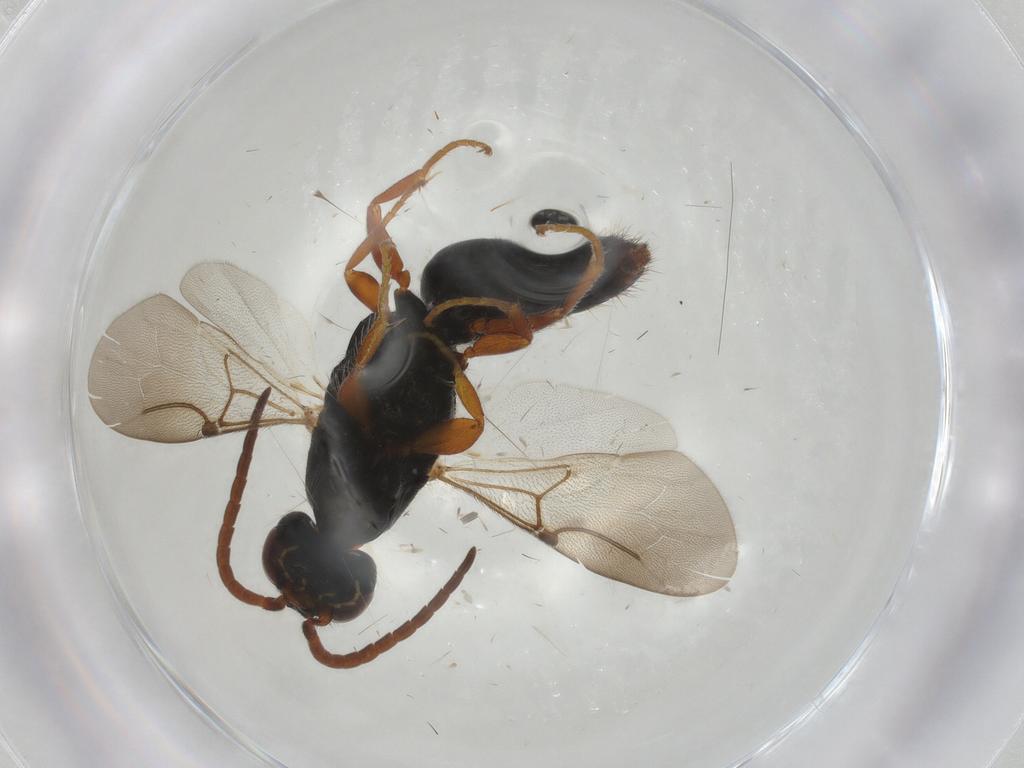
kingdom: Animalia
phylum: Arthropoda
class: Insecta
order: Hymenoptera
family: Bethylidae
